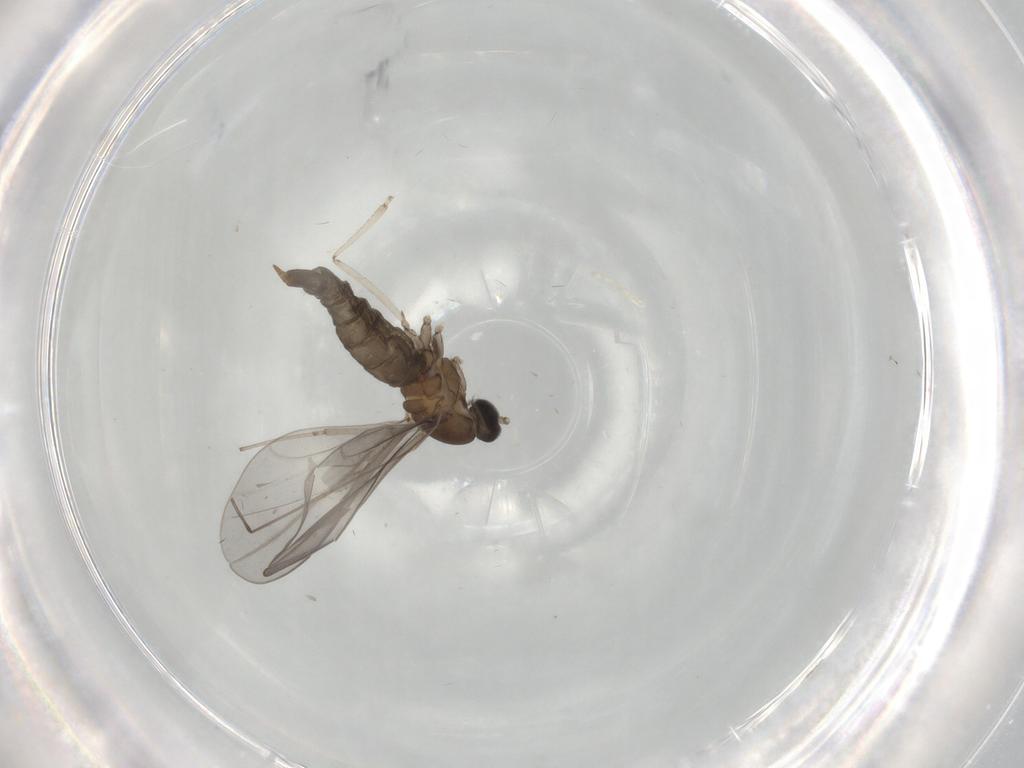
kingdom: Animalia
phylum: Arthropoda
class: Insecta
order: Diptera
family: Cecidomyiidae
